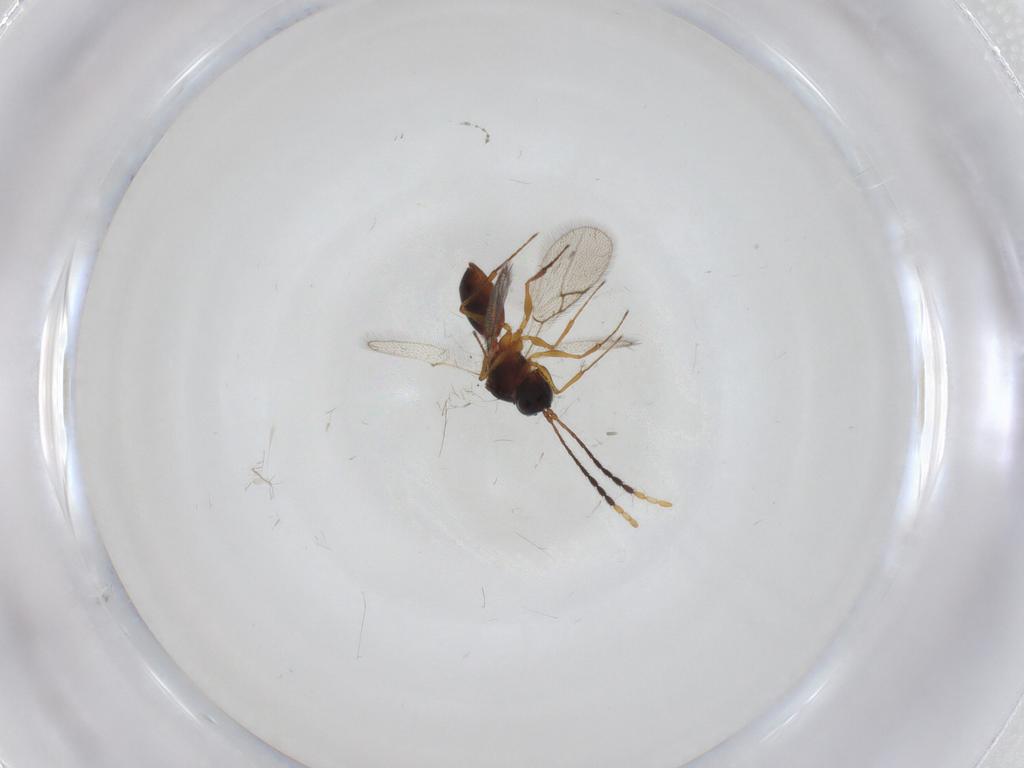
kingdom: Animalia
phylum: Arthropoda
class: Insecta
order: Hymenoptera
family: Figitidae
